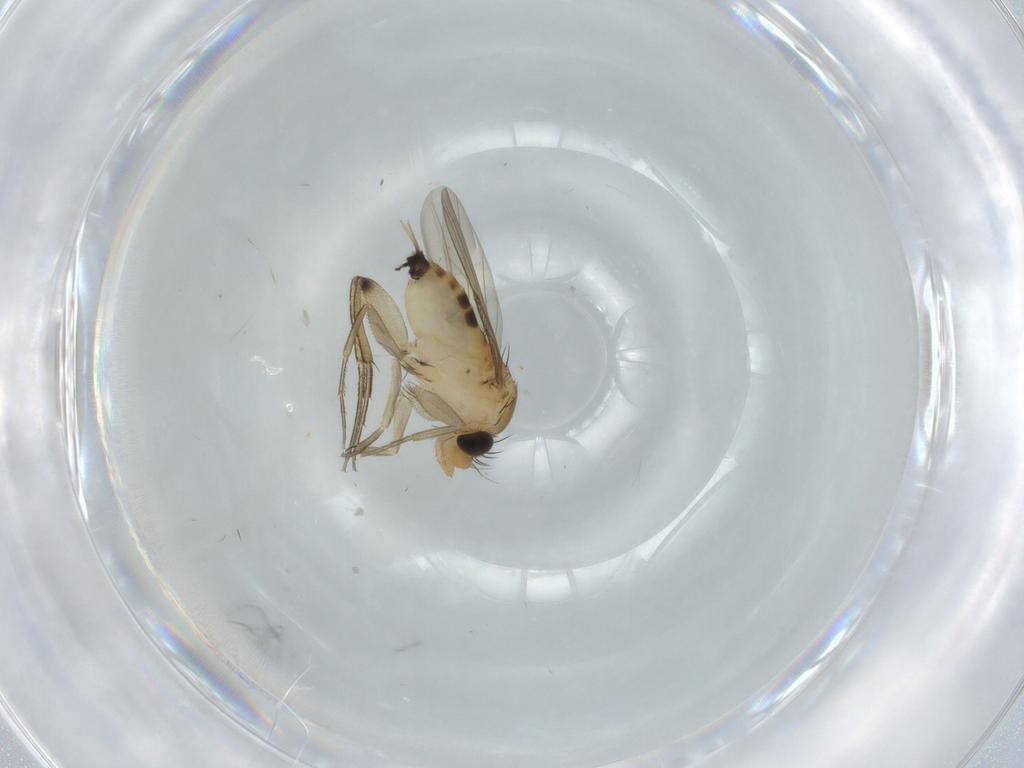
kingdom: Animalia
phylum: Arthropoda
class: Insecta
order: Diptera
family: Phoridae
